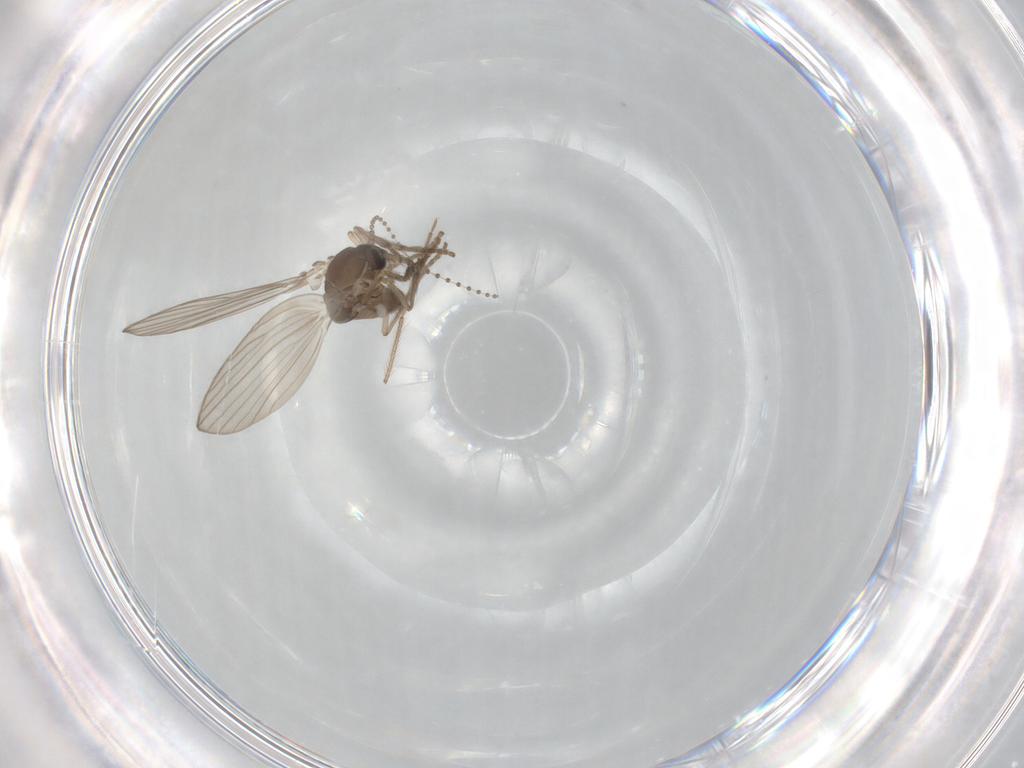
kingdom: Animalia
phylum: Arthropoda
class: Insecta
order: Diptera
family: Psychodidae
